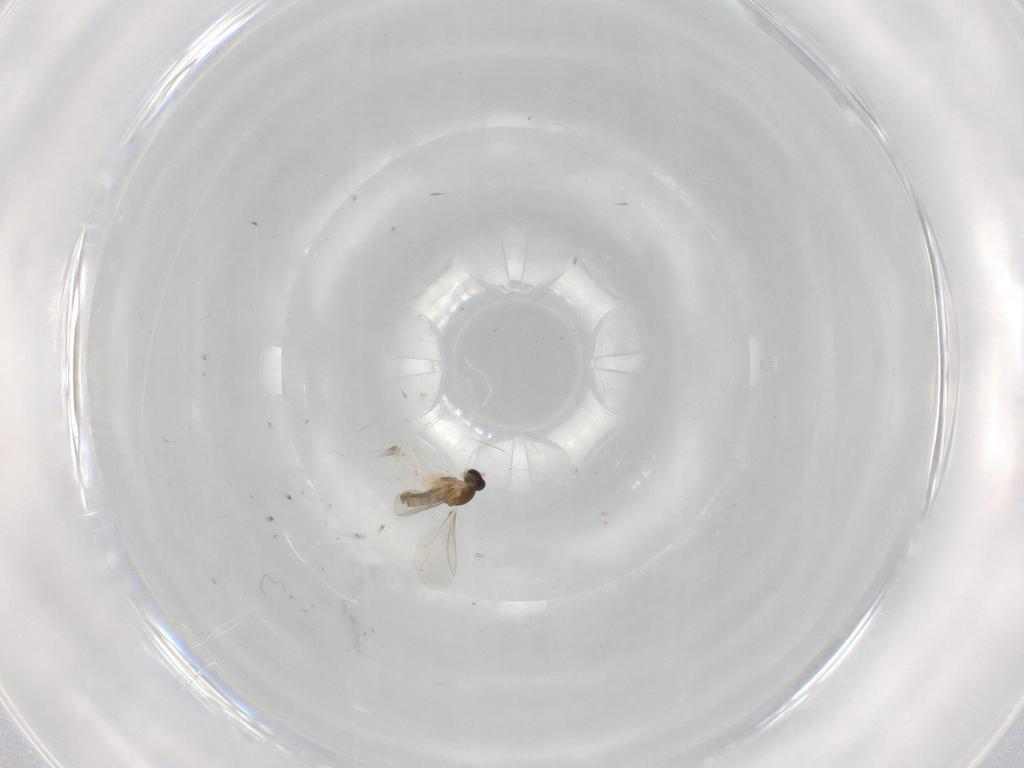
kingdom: Animalia
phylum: Arthropoda
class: Insecta
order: Diptera
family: Cecidomyiidae
